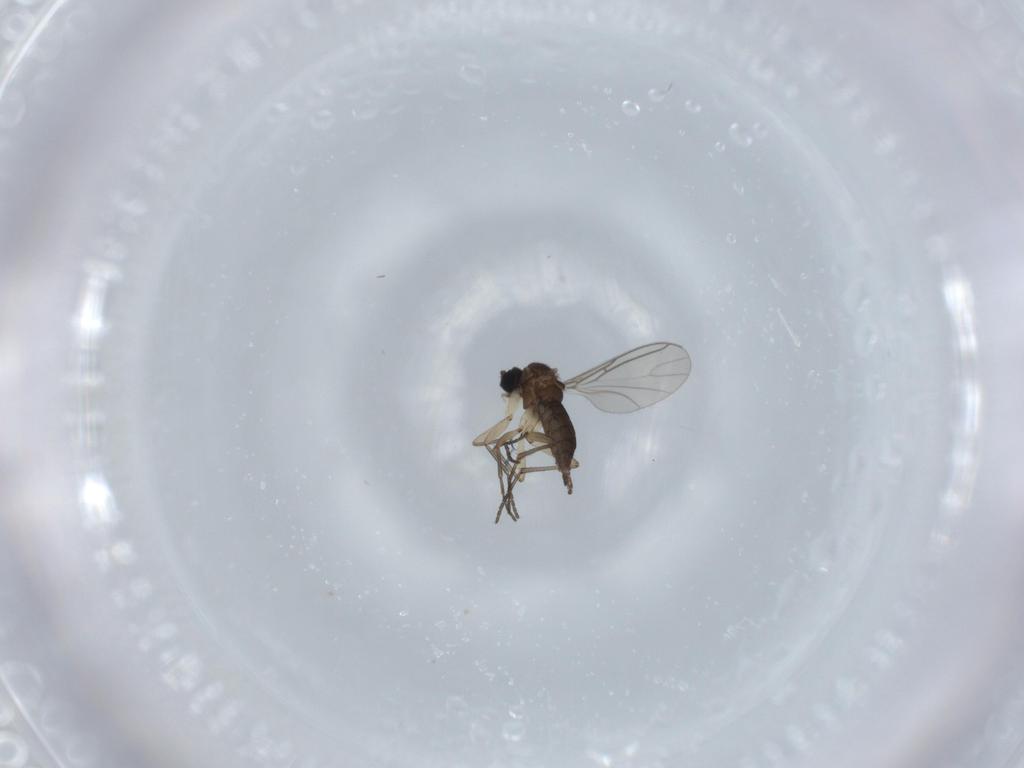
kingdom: Animalia
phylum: Arthropoda
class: Insecta
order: Diptera
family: Sciaridae
